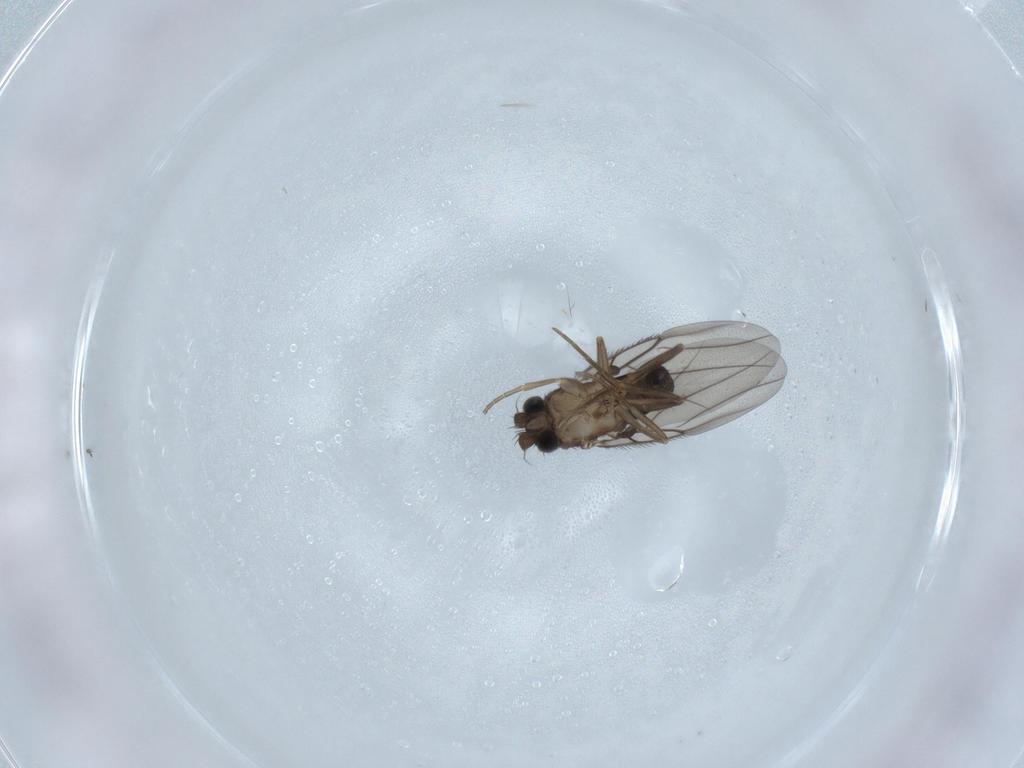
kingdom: Animalia
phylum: Arthropoda
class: Insecta
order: Diptera
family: Phoridae
